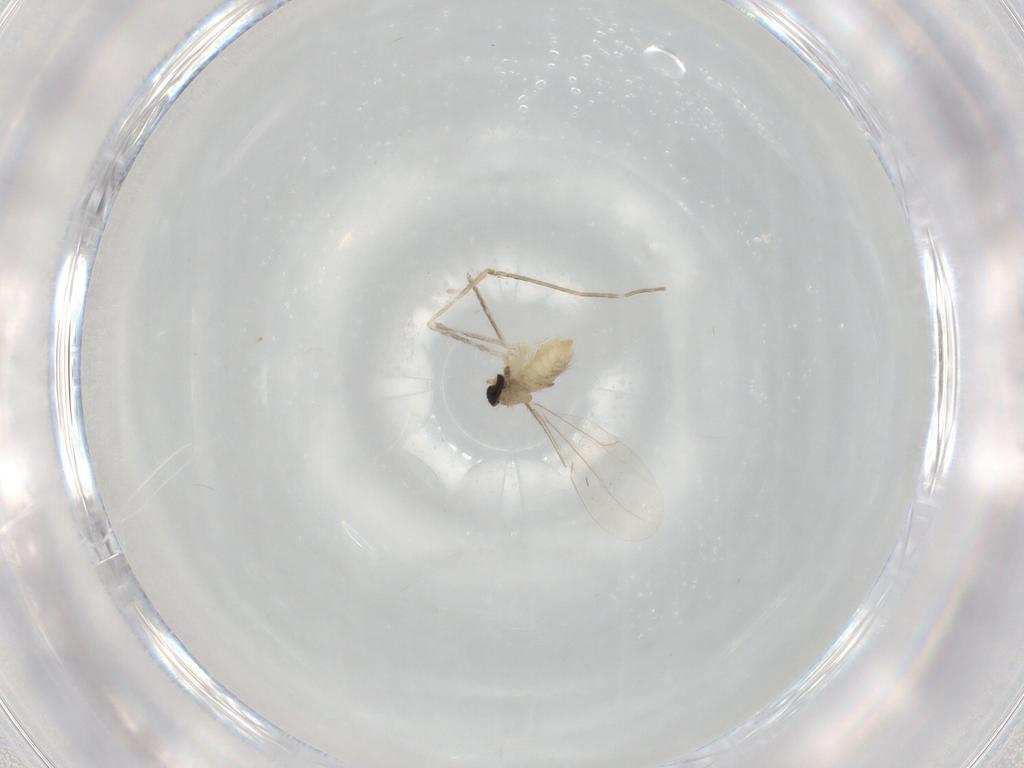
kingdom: Animalia
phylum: Arthropoda
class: Insecta
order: Diptera
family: Cecidomyiidae
